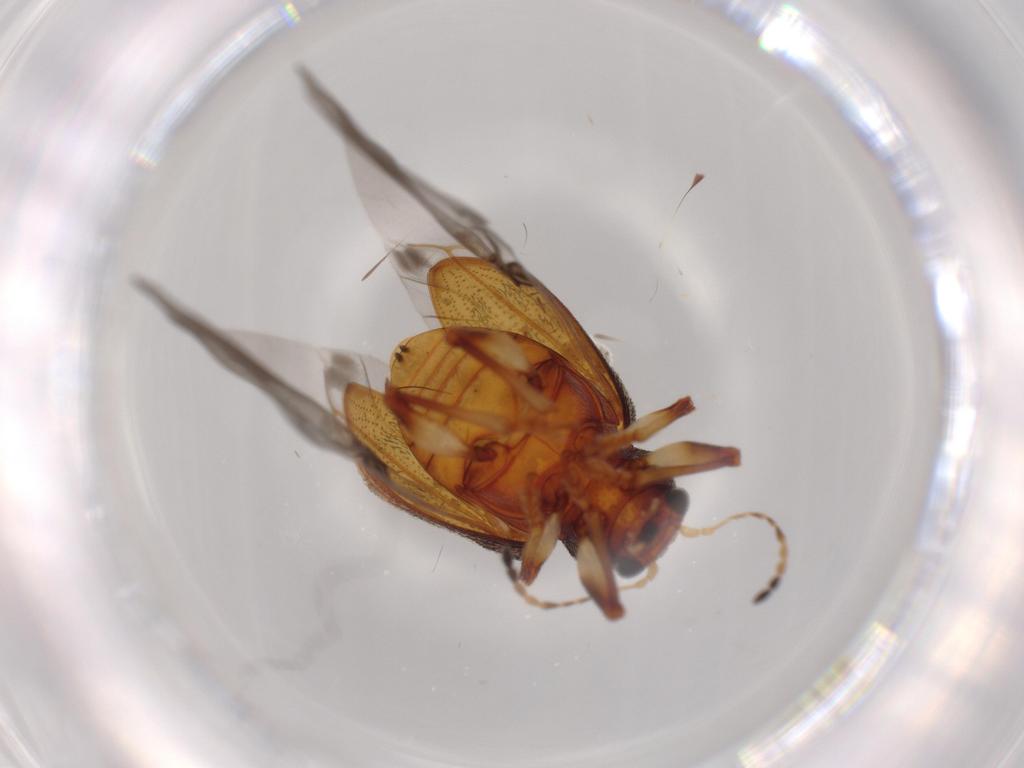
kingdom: Animalia
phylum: Arthropoda
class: Insecta
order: Coleoptera
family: Chrysomelidae
